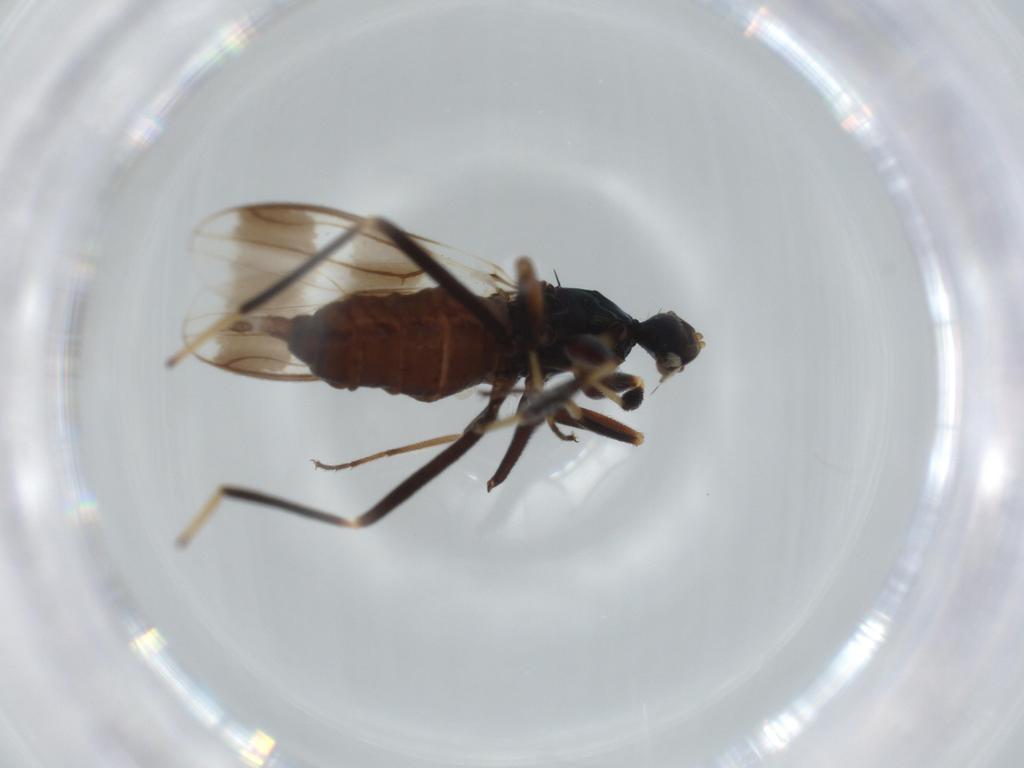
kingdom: Animalia
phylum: Arthropoda
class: Insecta
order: Diptera
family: Hybotidae
